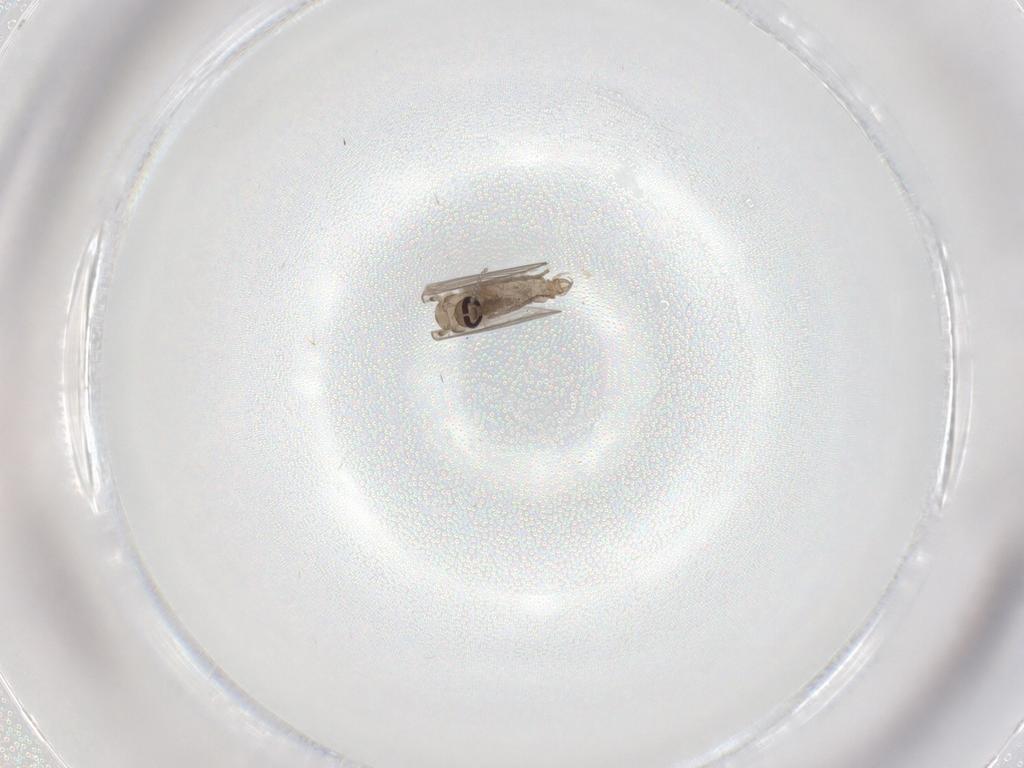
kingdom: Animalia
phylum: Arthropoda
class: Insecta
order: Diptera
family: Cecidomyiidae
